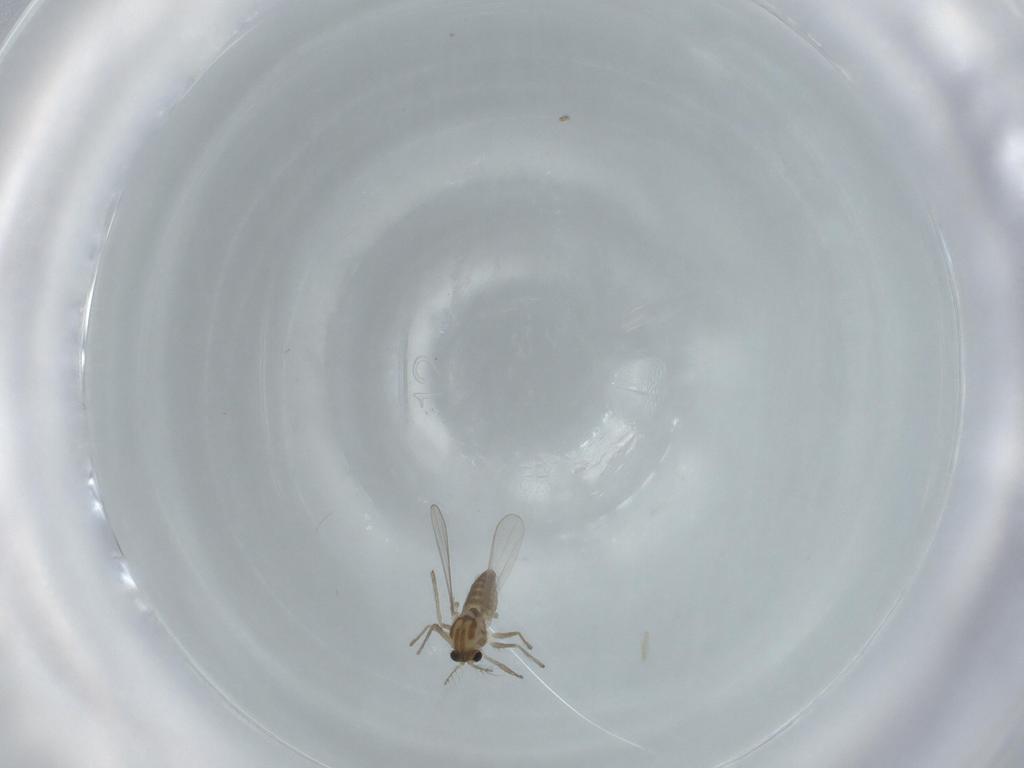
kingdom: Animalia
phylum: Arthropoda
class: Insecta
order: Diptera
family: Chironomidae
